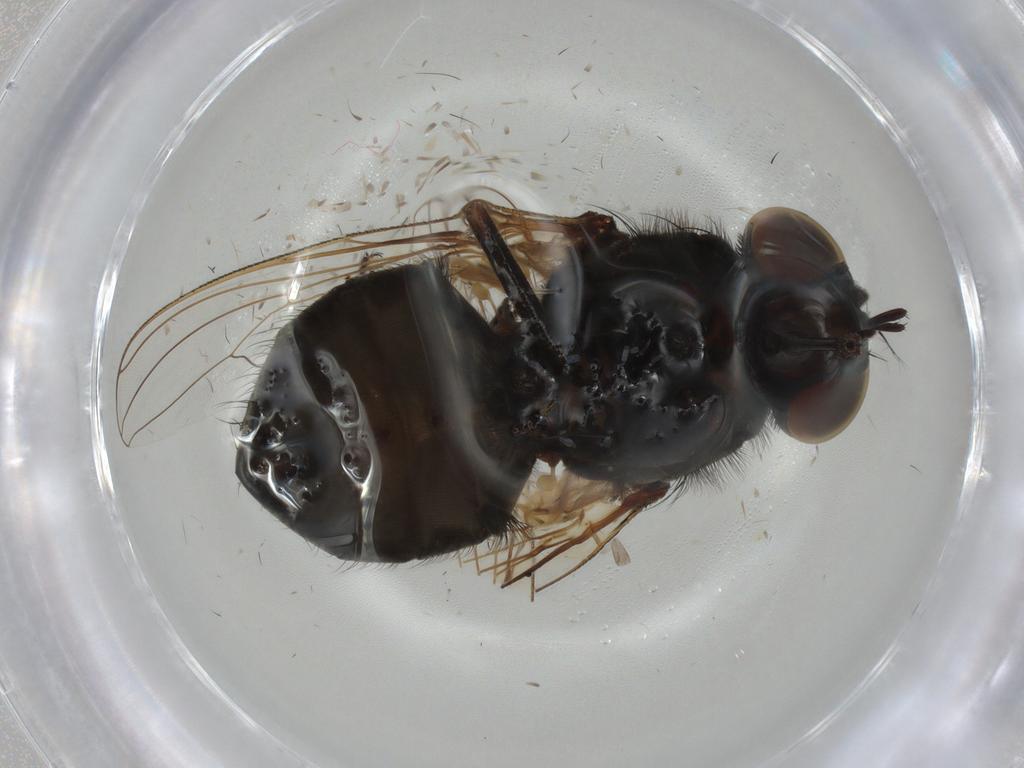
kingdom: Animalia
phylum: Arthropoda
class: Insecta
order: Diptera
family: Muscidae
